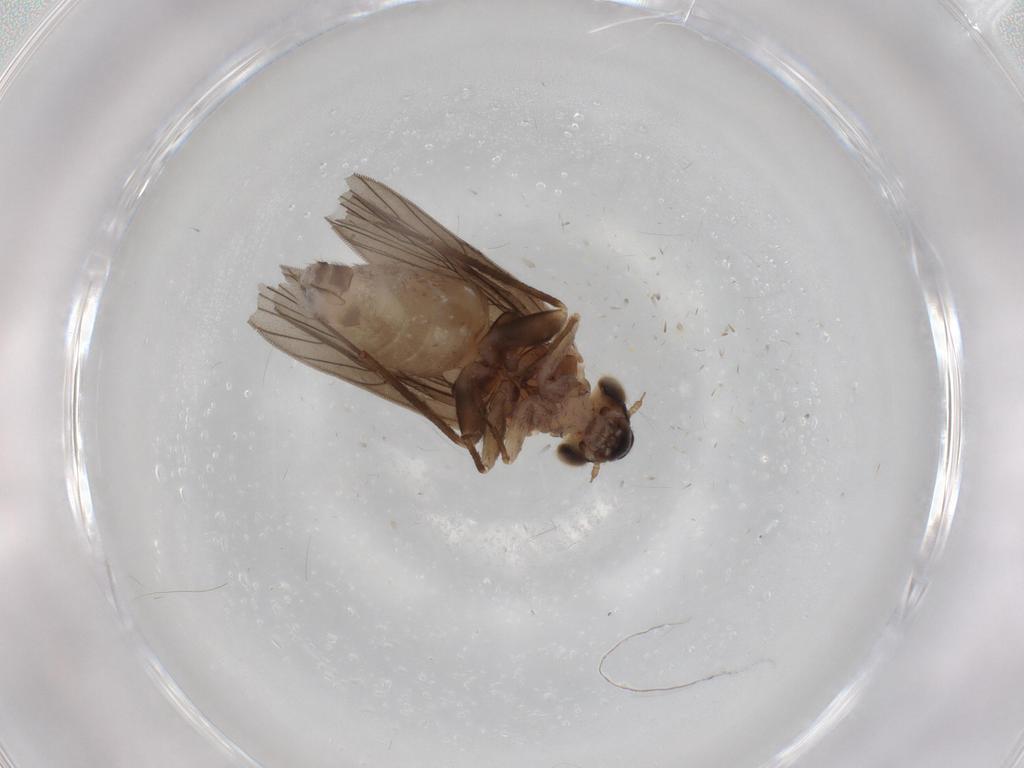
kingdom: Animalia
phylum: Arthropoda
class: Insecta
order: Psocodea
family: Lepidopsocidae
